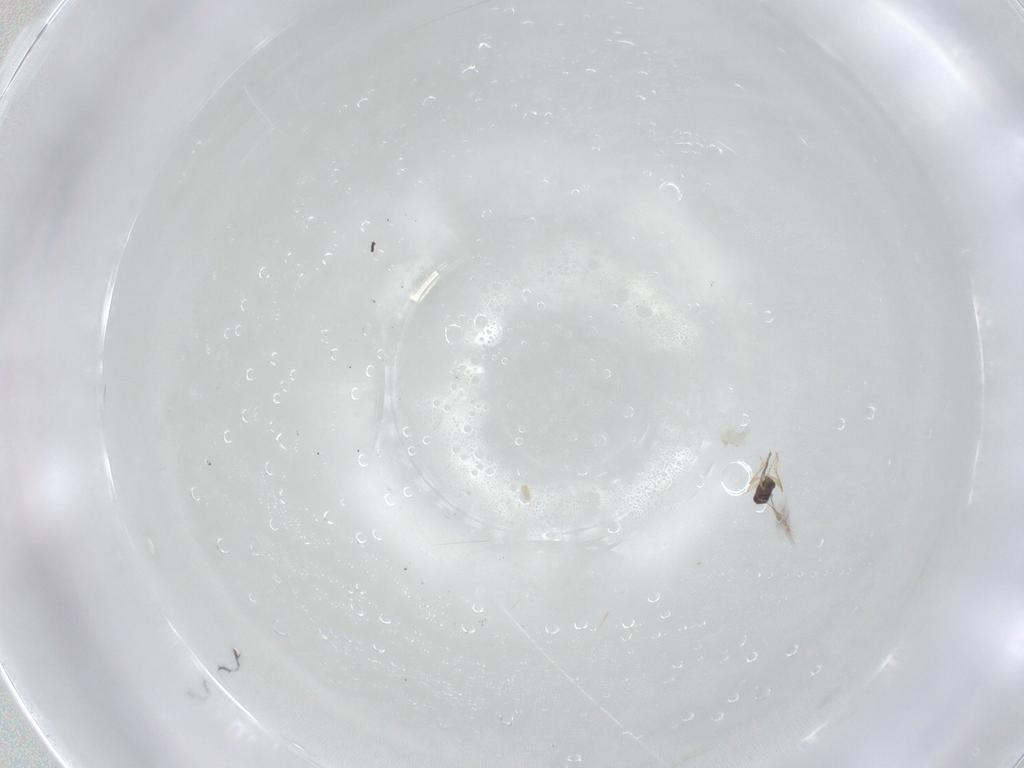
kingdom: Animalia
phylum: Arthropoda
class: Insecta
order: Hymenoptera
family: Mymaridae
